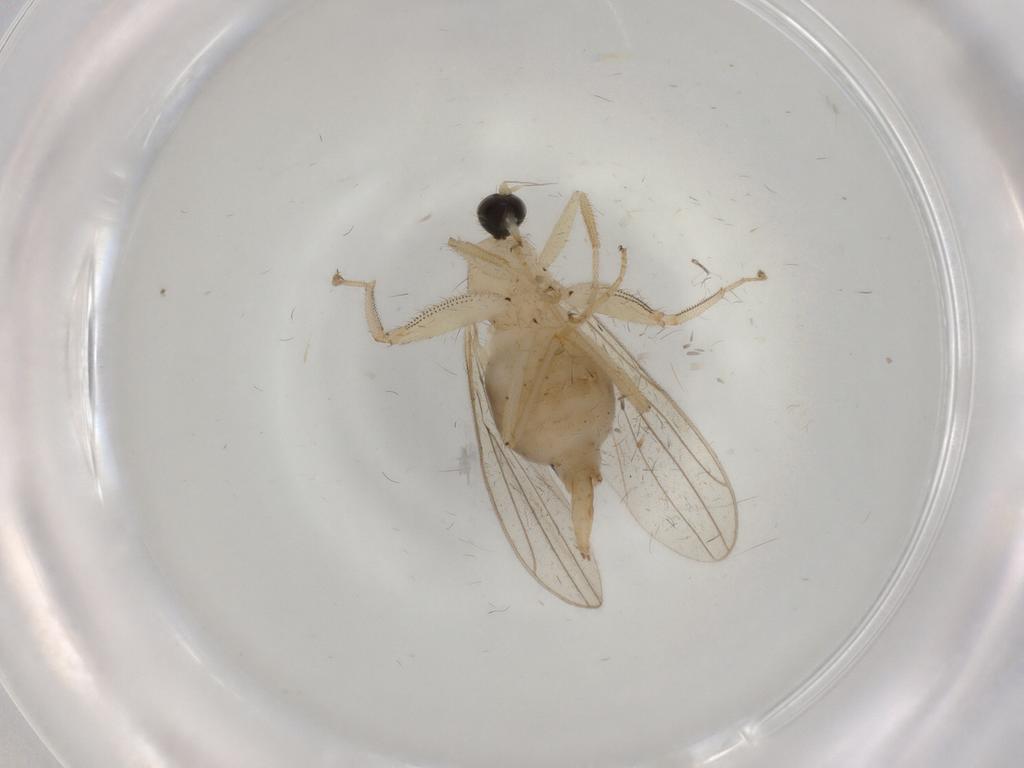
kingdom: Animalia
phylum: Arthropoda
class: Insecta
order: Diptera
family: Hybotidae
